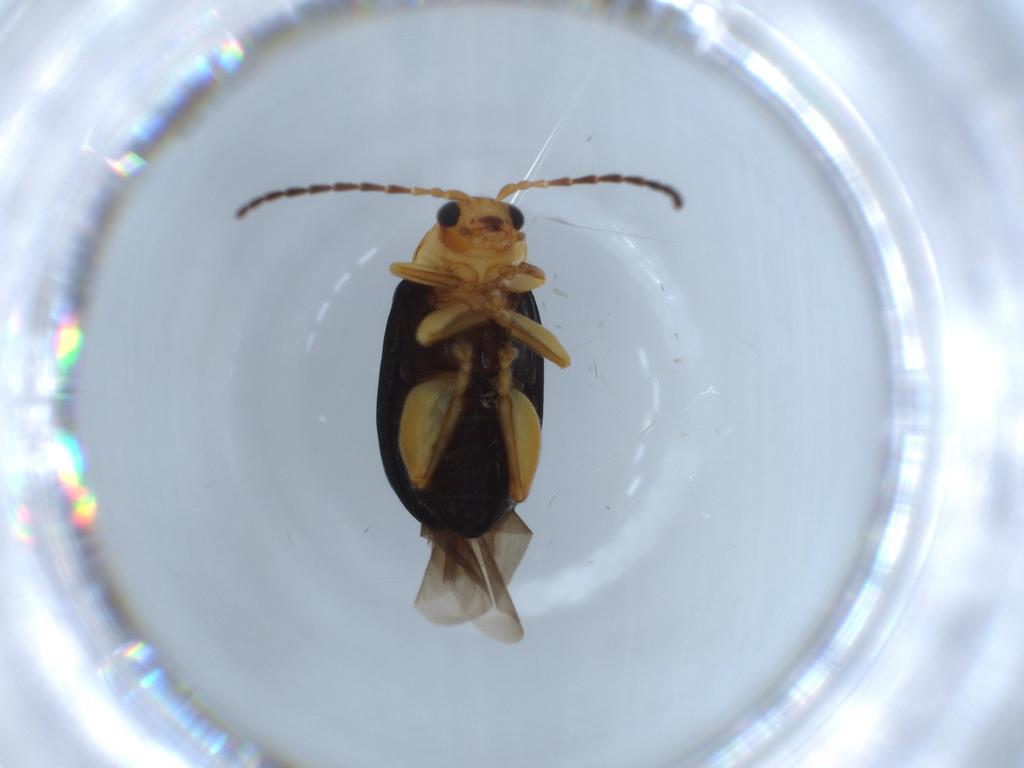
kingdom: Animalia
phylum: Arthropoda
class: Insecta
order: Coleoptera
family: Chrysomelidae
